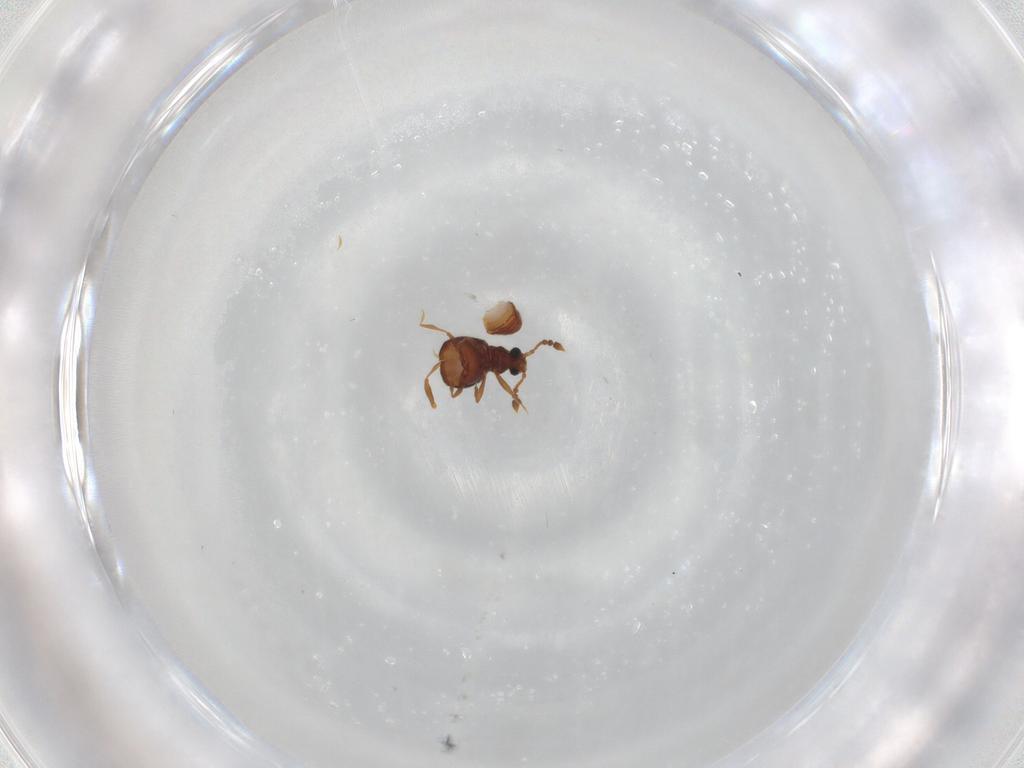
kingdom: Animalia
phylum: Arthropoda
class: Insecta
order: Coleoptera
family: Staphylinidae
